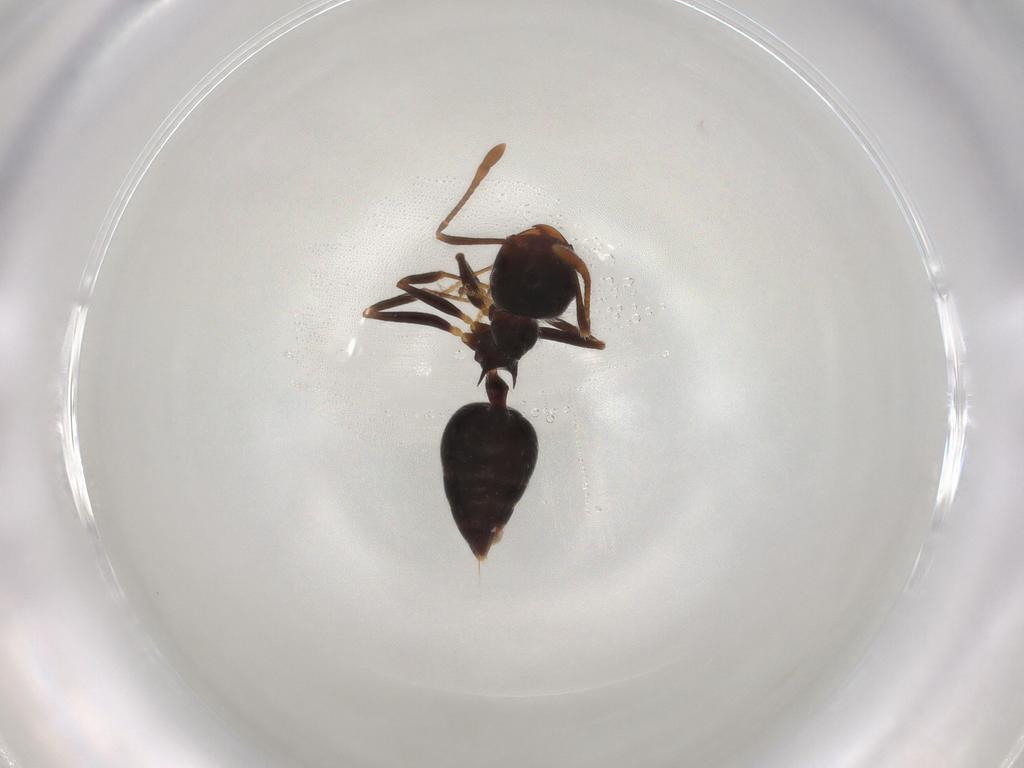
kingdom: Animalia
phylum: Arthropoda
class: Insecta
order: Hymenoptera
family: Formicidae
